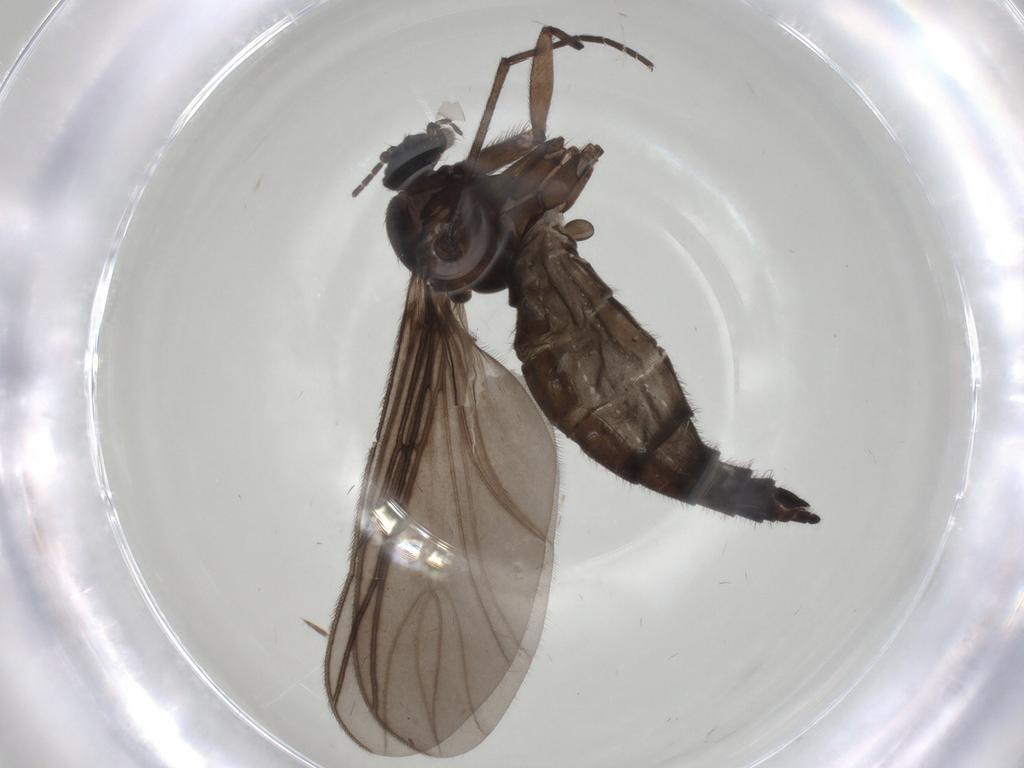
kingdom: Animalia
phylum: Arthropoda
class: Insecta
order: Diptera
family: Sciaridae
